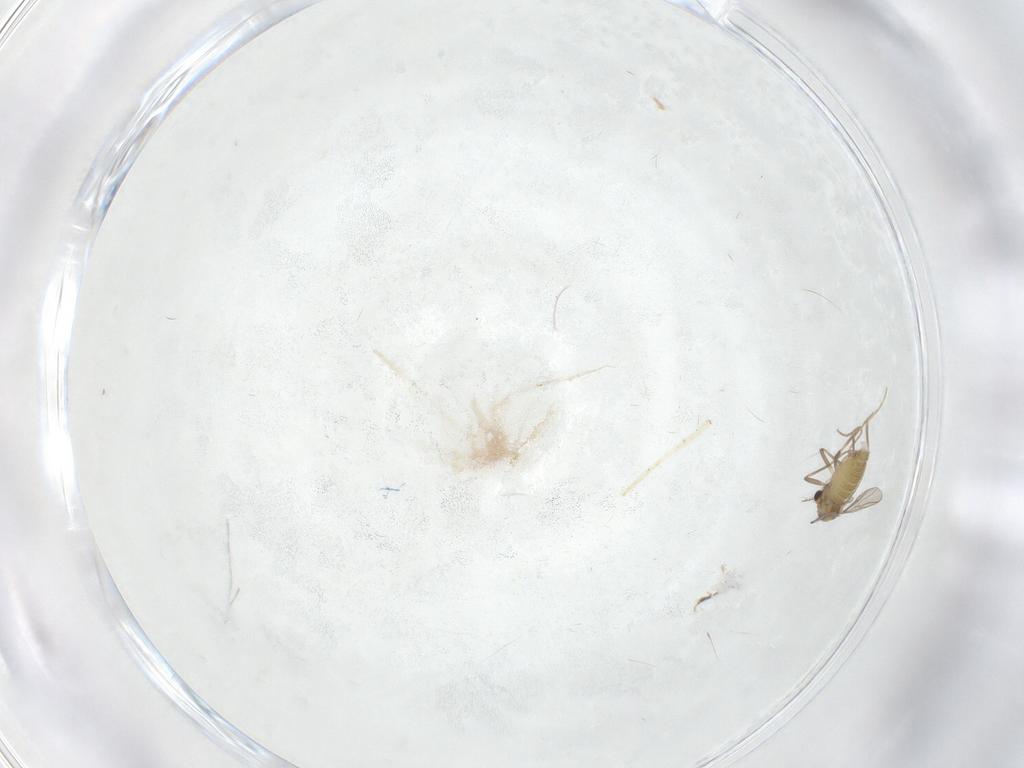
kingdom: Animalia
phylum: Arthropoda
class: Insecta
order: Diptera
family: Chironomidae
